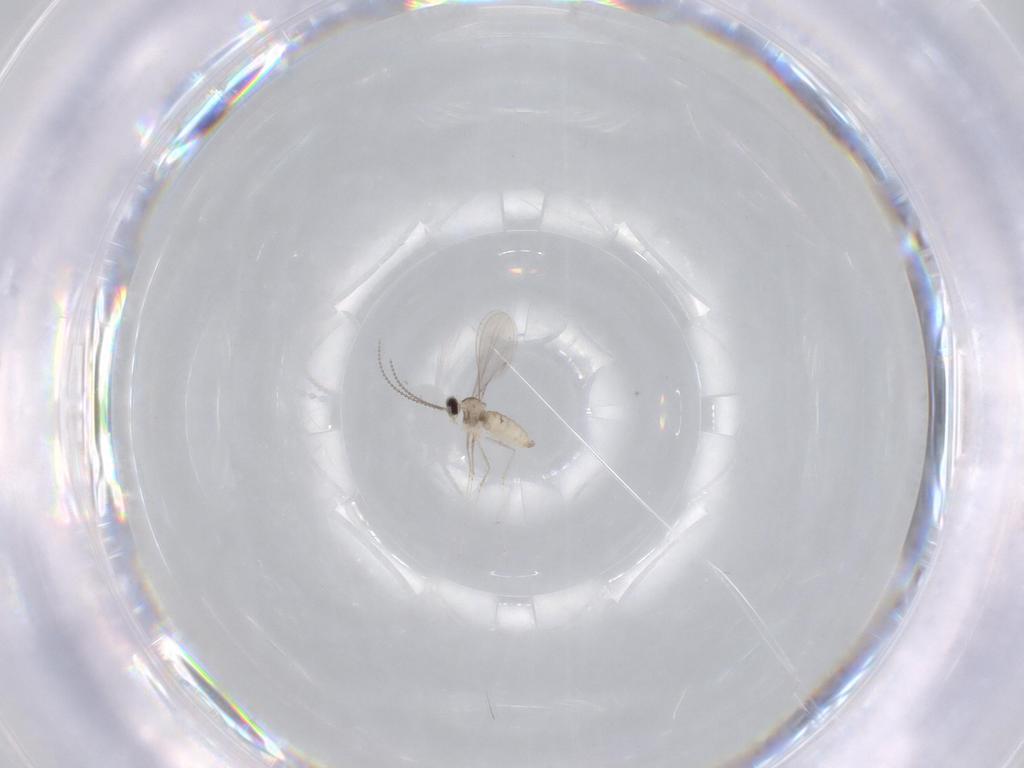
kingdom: Animalia
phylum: Arthropoda
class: Insecta
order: Diptera
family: Cecidomyiidae
